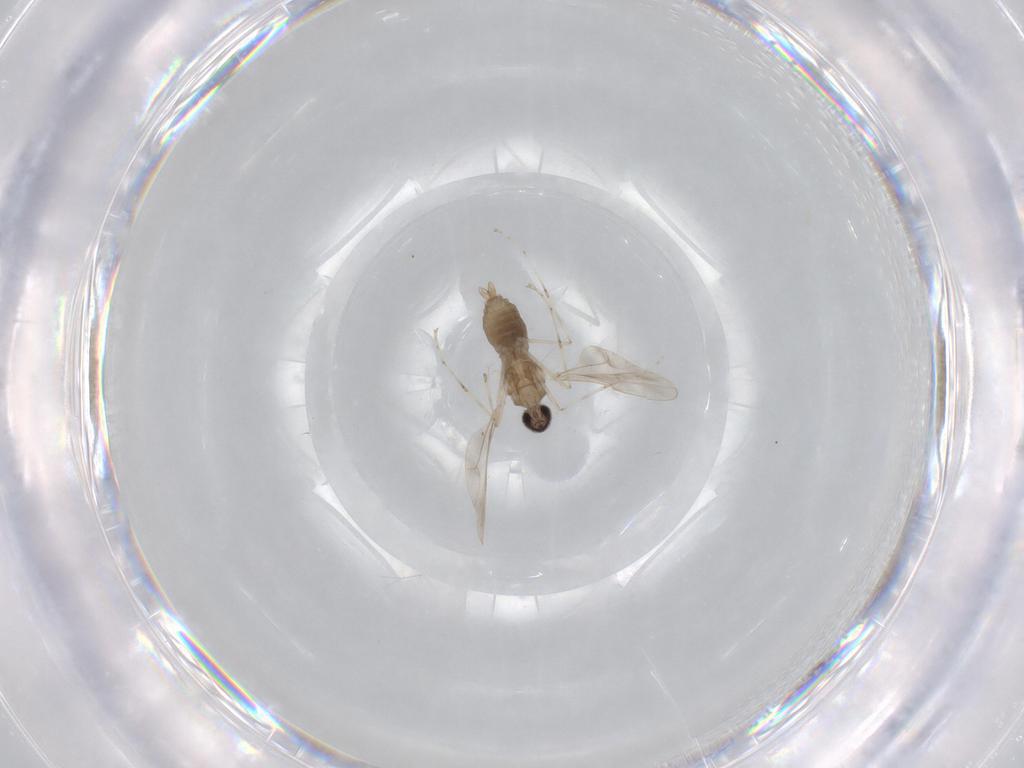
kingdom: Animalia
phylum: Arthropoda
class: Insecta
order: Diptera
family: Cecidomyiidae
